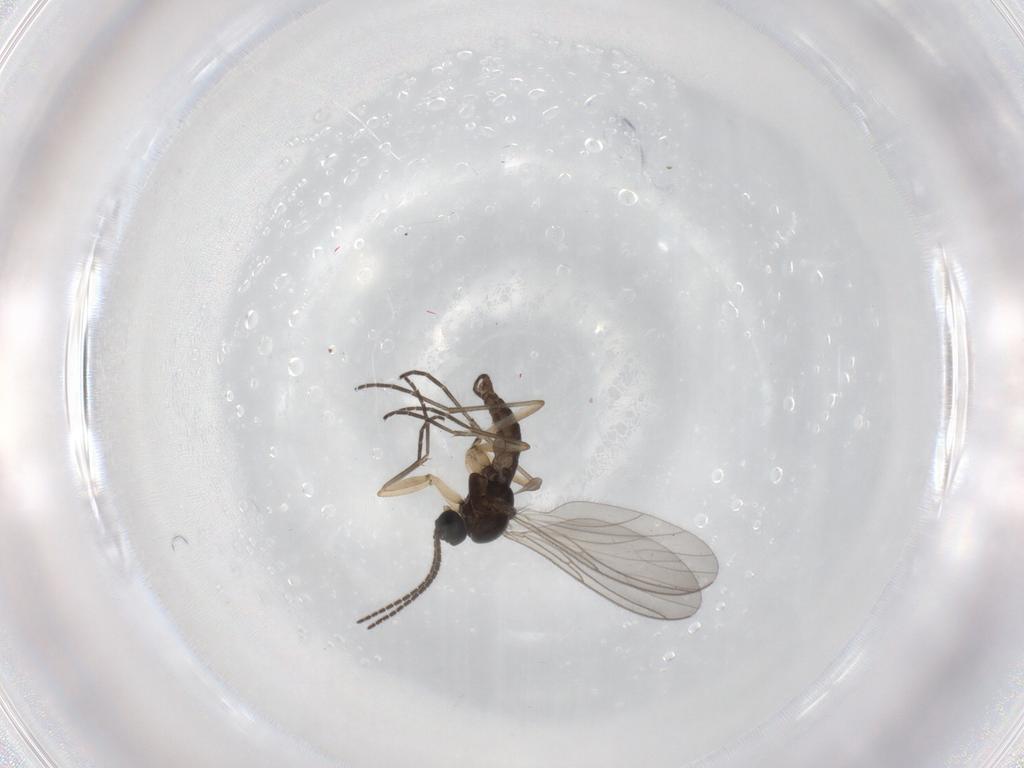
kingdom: Animalia
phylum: Arthropoda
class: Insecta
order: Diptera
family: Sciaridae
